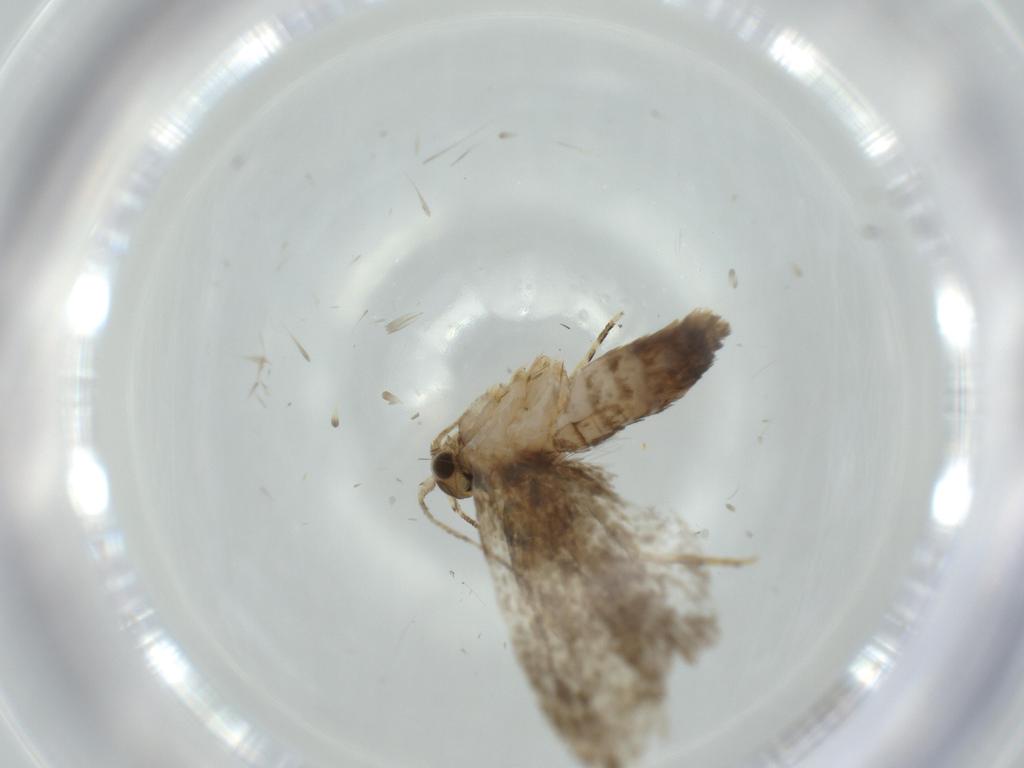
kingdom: Animalia
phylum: Arthropoda
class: Insecta
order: Lepidoptera
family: Tineidae
